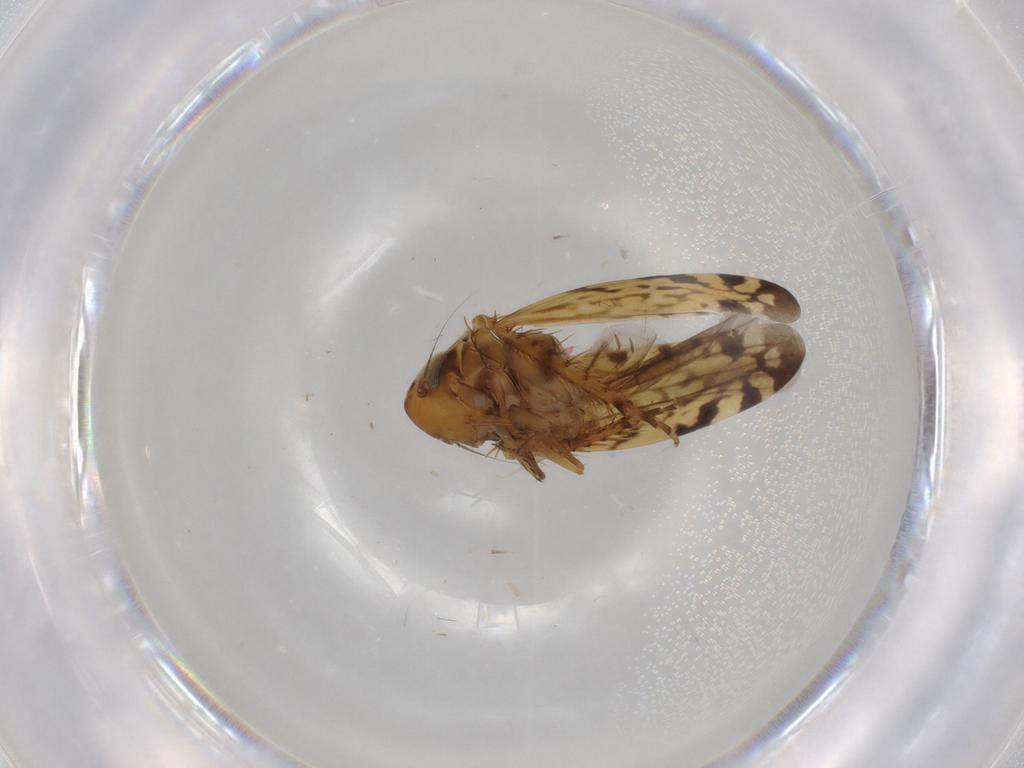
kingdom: Animalia
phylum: Arthropoda
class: Insecta
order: Hemiptera
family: Cicadellidae
